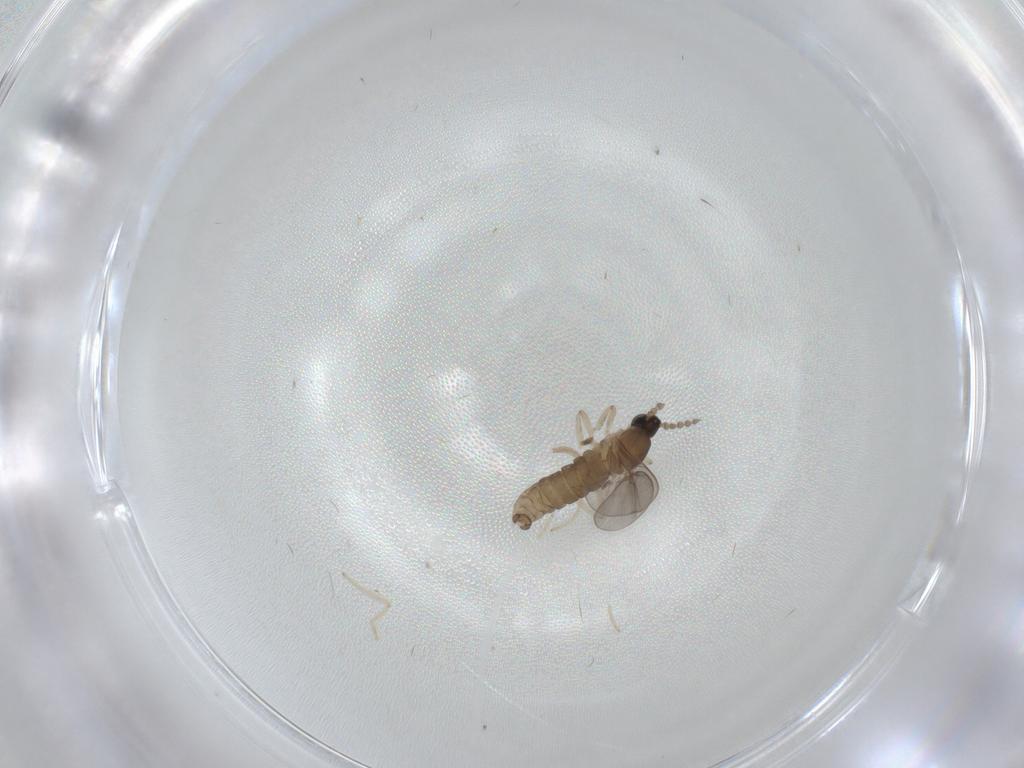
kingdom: Animalia
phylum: Arthropoda
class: Insecta
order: Diptera
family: Cecidomyiidae
